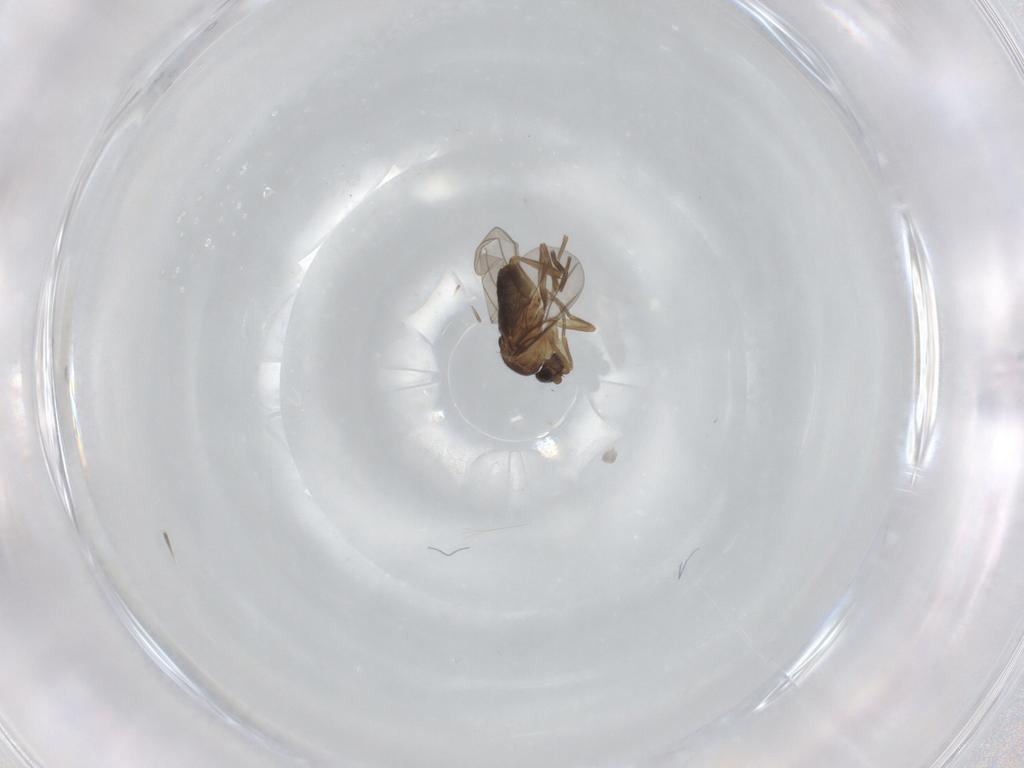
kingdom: Animalia
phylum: Arthropoda
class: Insecta
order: Diptera
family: Phoridae
